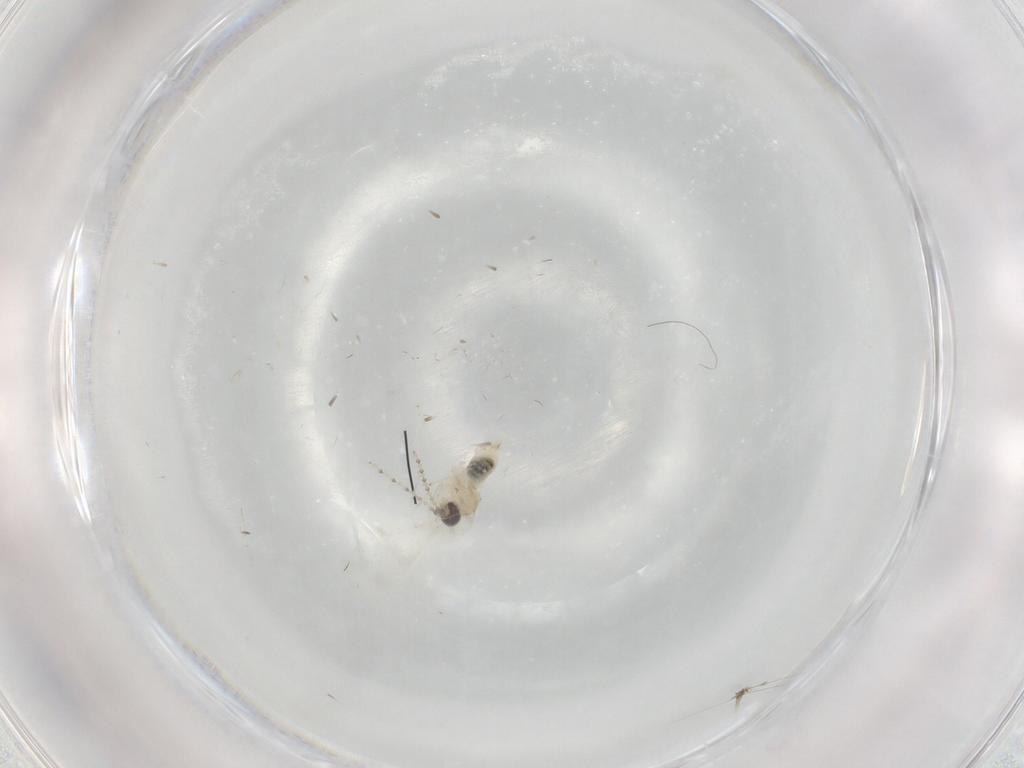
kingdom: Animalia
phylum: Arthropoda
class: Insecta
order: Diptera
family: Cecidomyiidae
